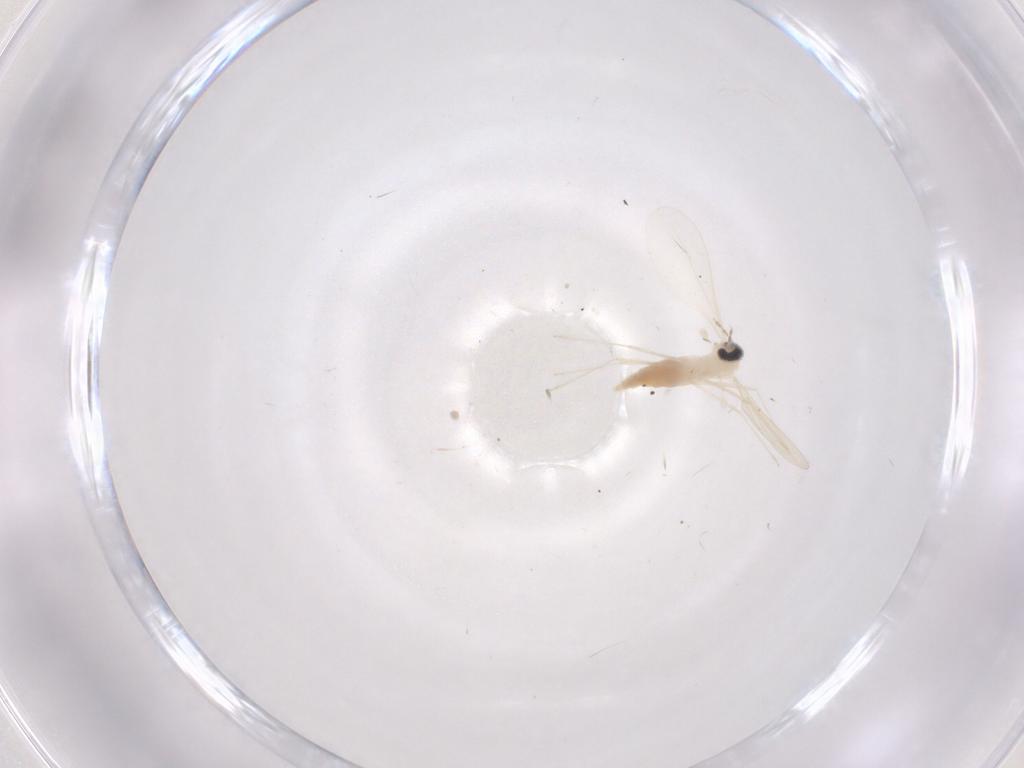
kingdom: Animalia
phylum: Arthropoda
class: Insecta
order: Diptera
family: Cecidomyiidae
